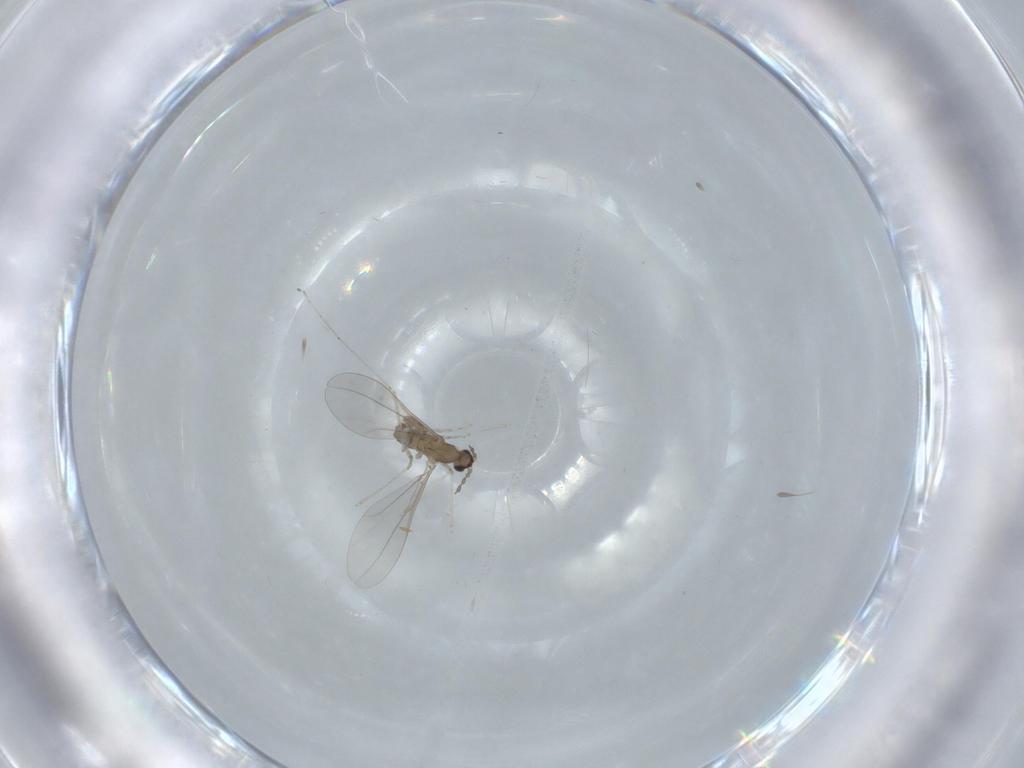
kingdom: Animalia
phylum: Arthropoda
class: Insecta
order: Diptera
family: Cecidomyiidae
